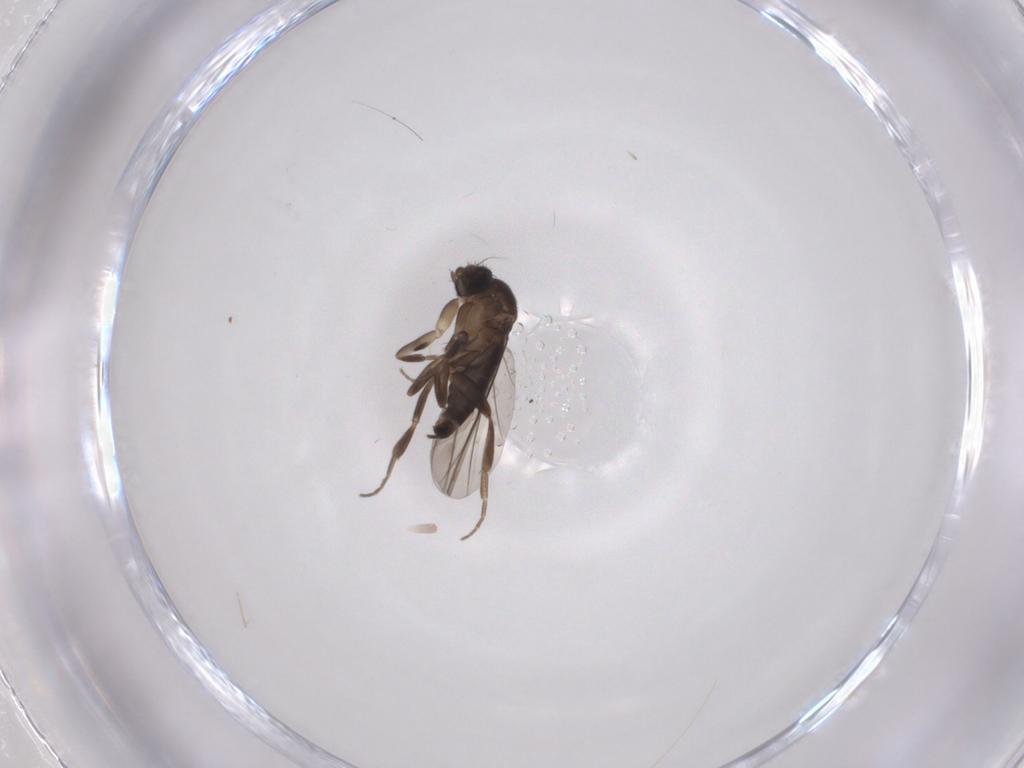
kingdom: Animalia
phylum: Arthropoda
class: Insecta
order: Diptera
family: Phoridae
